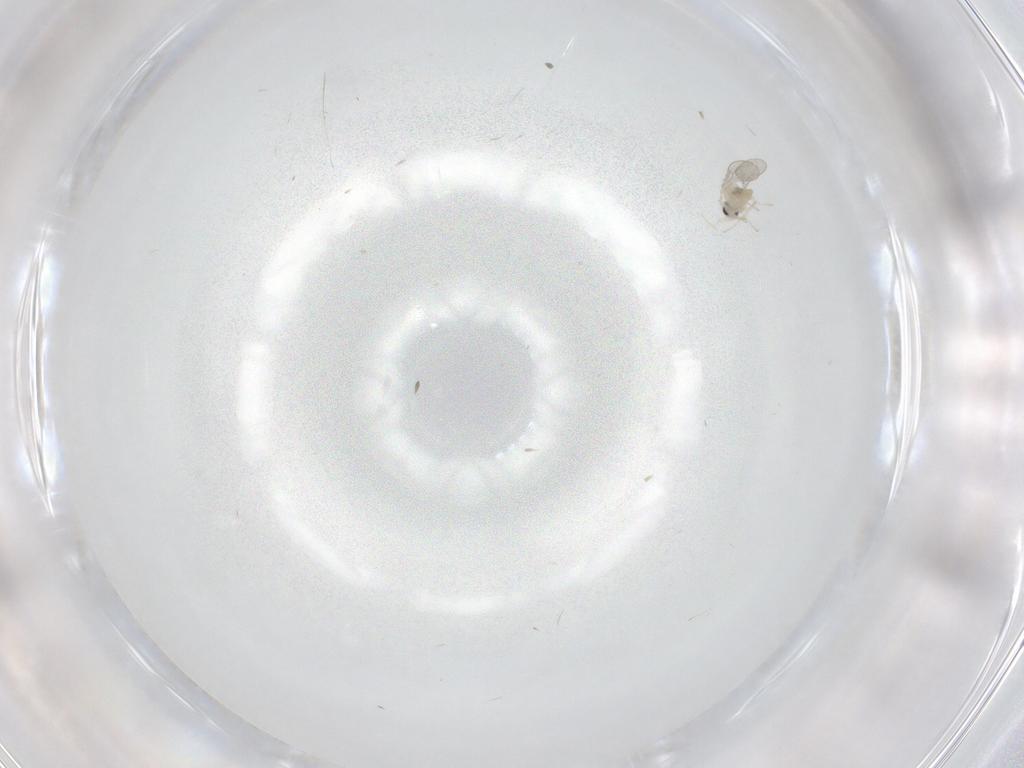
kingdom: Animalia
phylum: Arthropoda
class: Insecta
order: Diptera
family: Cecidomyiidae
